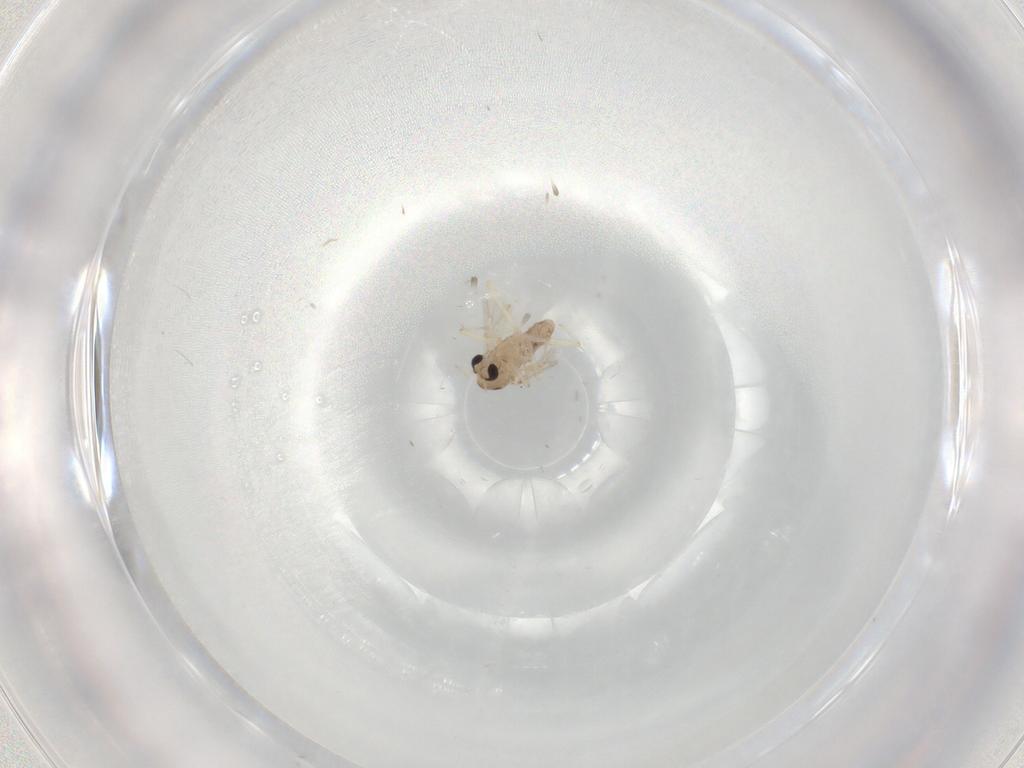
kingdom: Animalia
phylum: Arthropoda
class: Insecta
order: Diptera
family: Chironomidae
